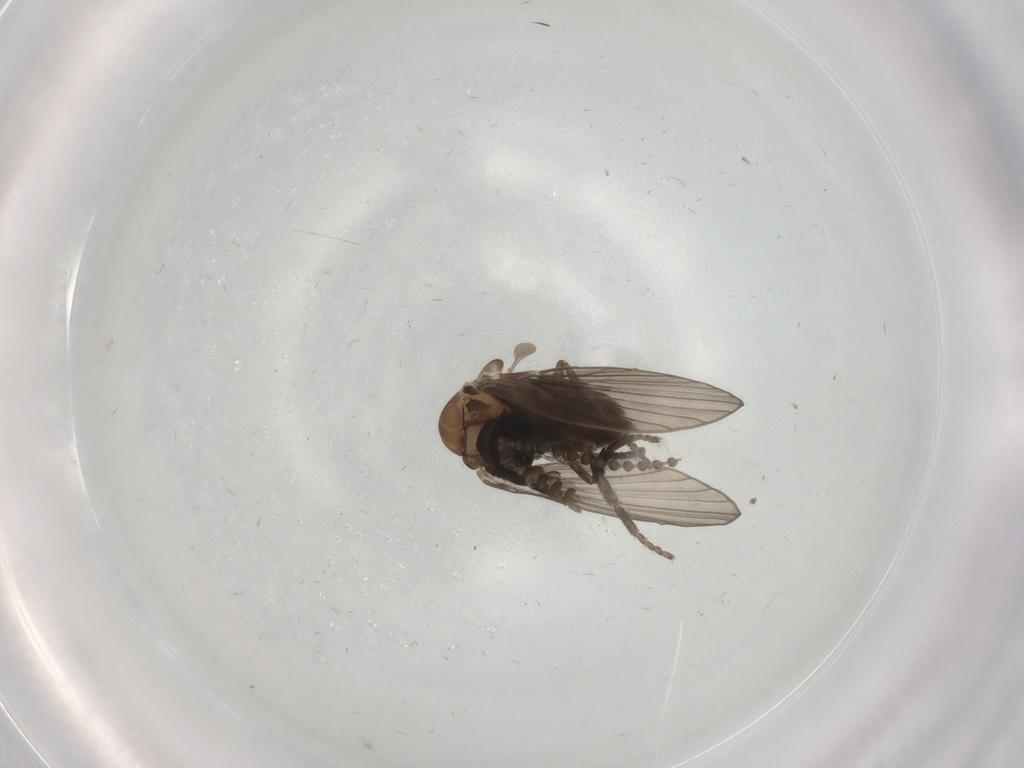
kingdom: Animalia
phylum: Arthropoda
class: Insecta
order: Diptera
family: Psychodidae
